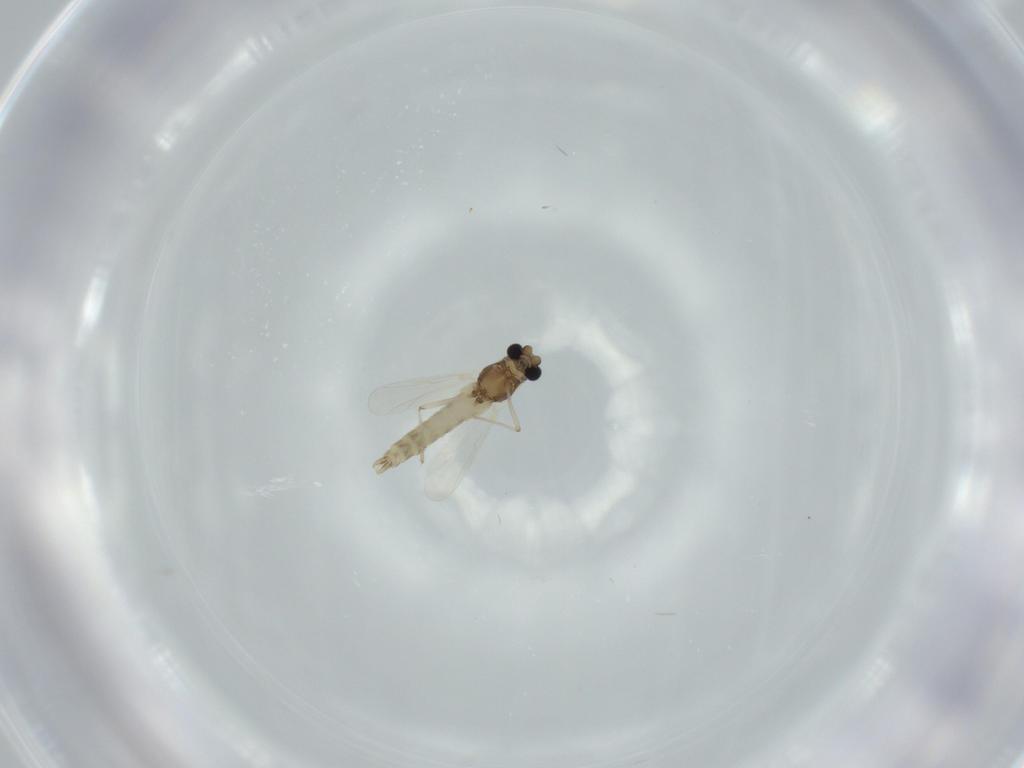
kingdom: Animalia
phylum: Arthropoda
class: Insecta
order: Diptera
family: Chironomidae
